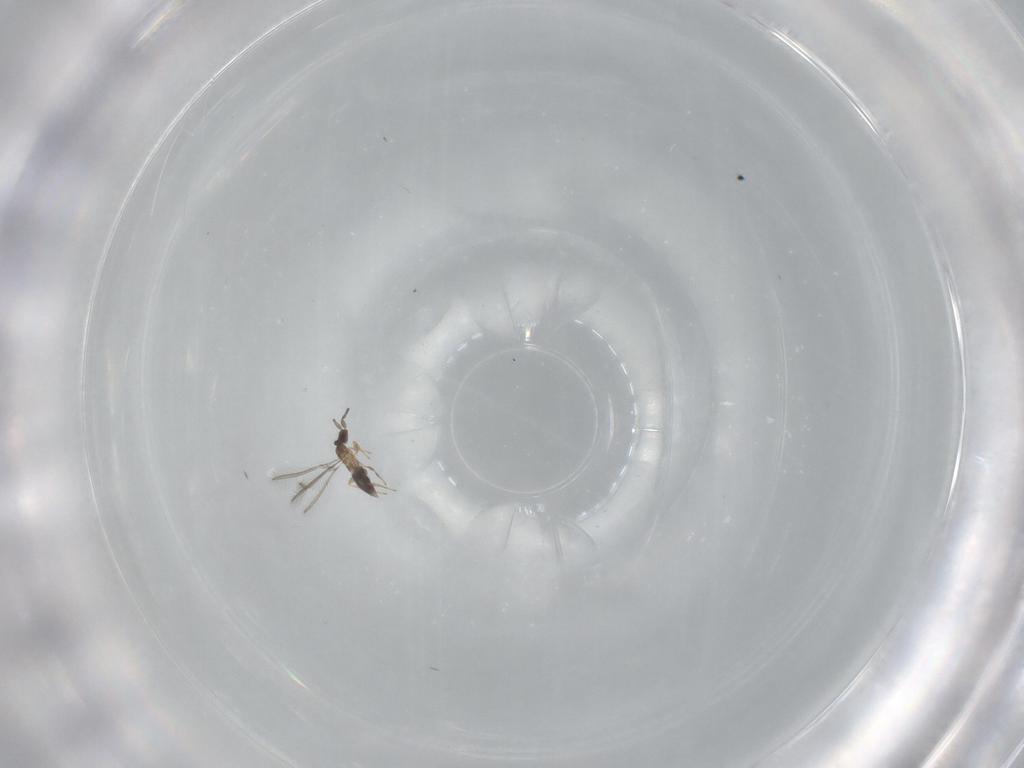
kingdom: Animalia
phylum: Arthropoda
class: Insecta
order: Hymenoptera
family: Mymaridae
